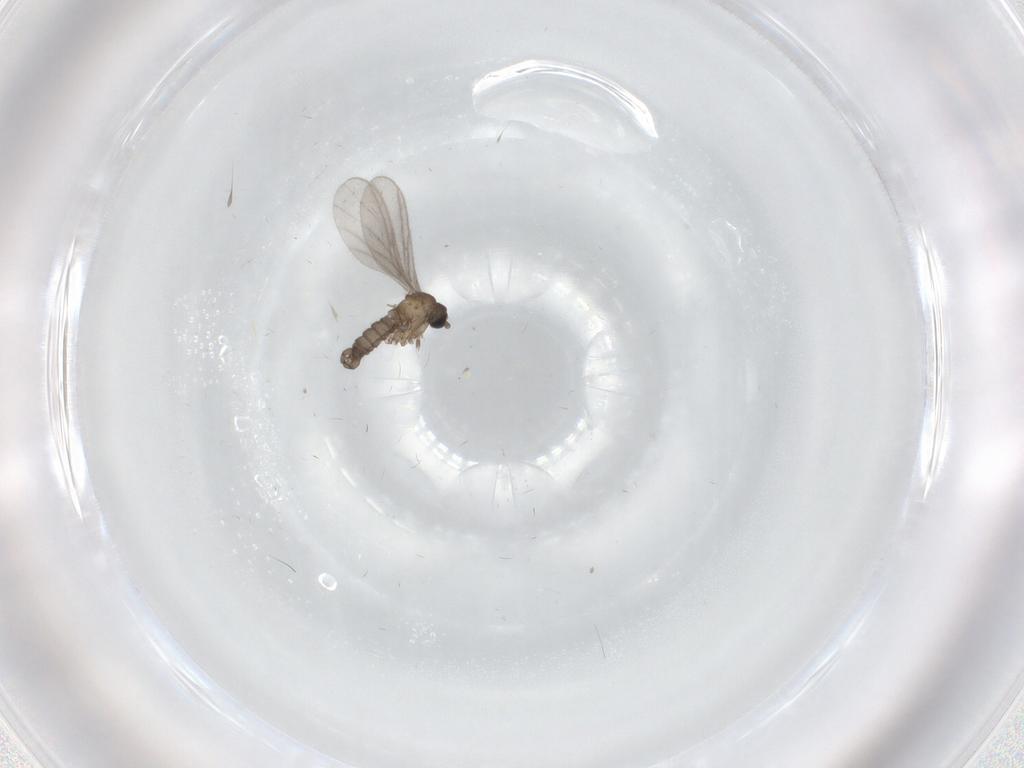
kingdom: Animalia
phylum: Arthropoda
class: Insecta
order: Diptera
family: Sciaridae
